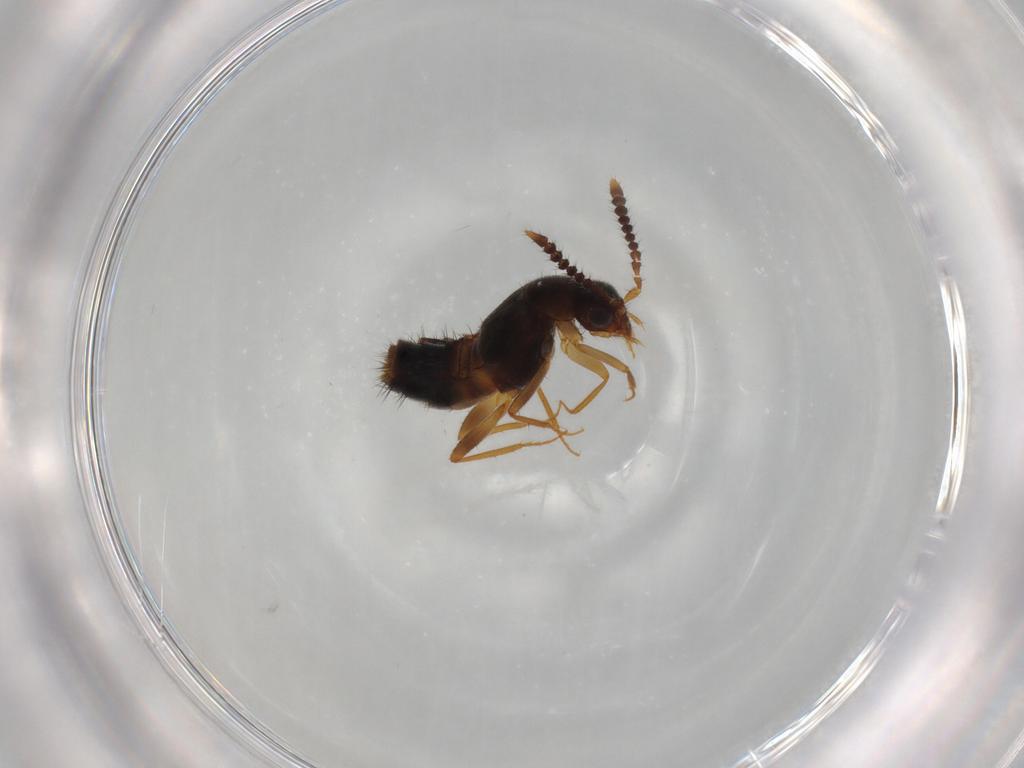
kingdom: Animalia
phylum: Arthropoda
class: Insecta
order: Coleoptera
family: Staphylinidae
